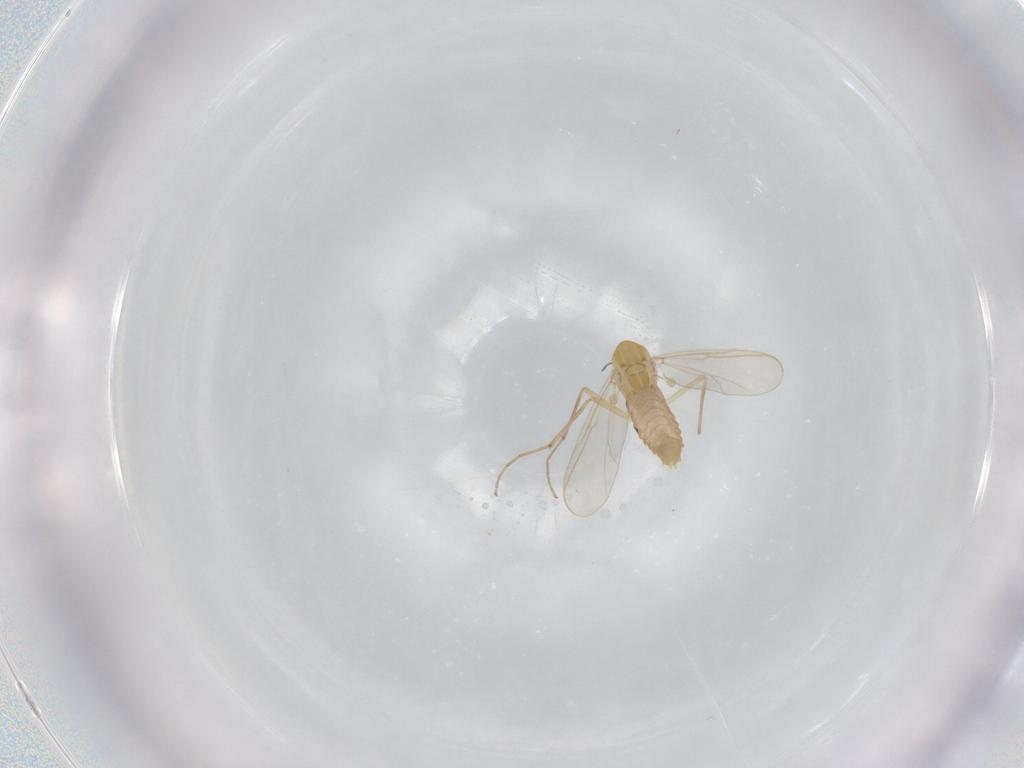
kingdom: Animalia
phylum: Arthropoda
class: Insecta
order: Diptera
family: Chironomidae
